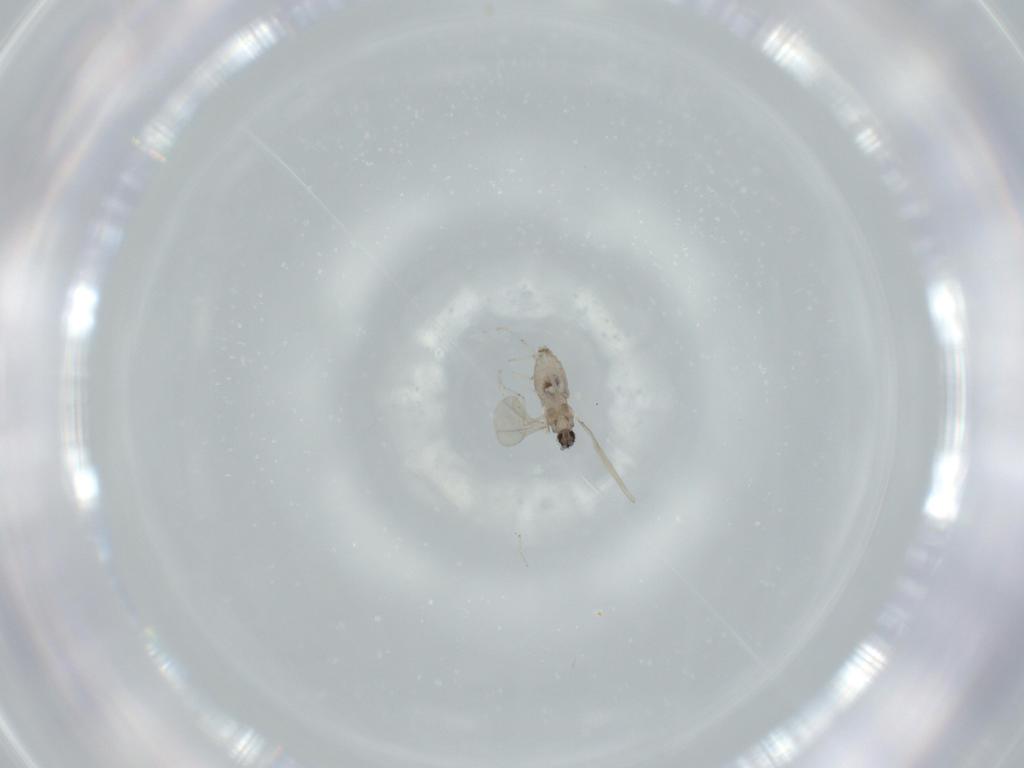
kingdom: Animalia
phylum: Arthropoda
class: Insecta
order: Diptera
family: Cecidomyiidae
